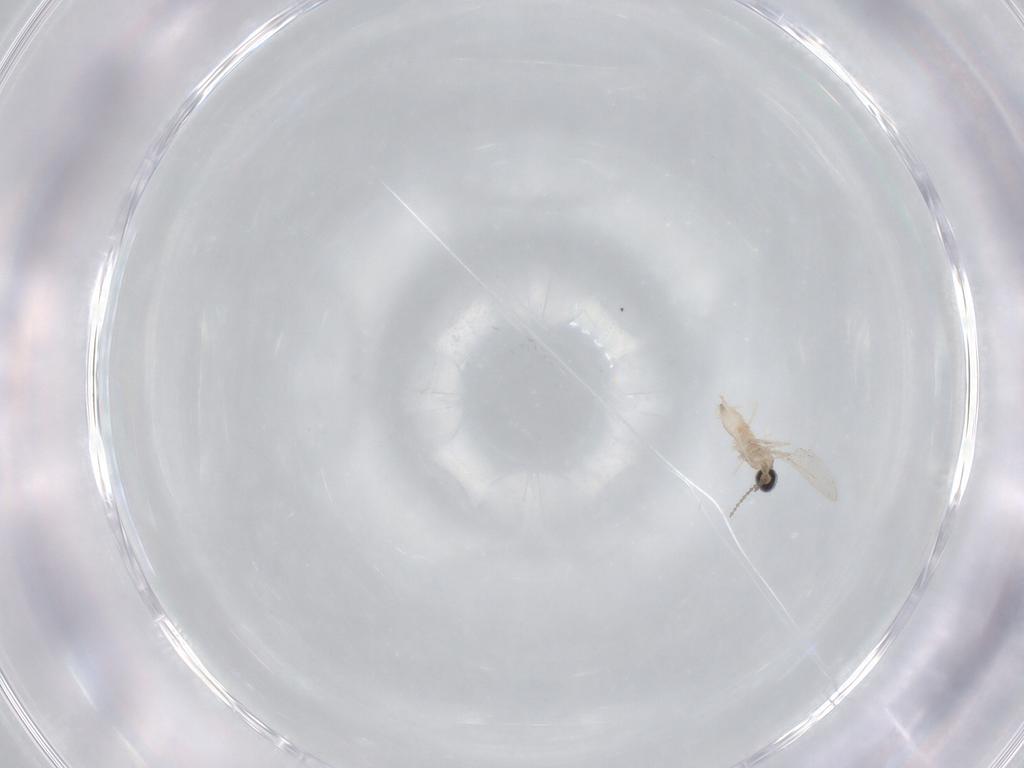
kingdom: Animalia
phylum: Arthropoda
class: Insecta
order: Diptera
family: Cecidomyiidae
